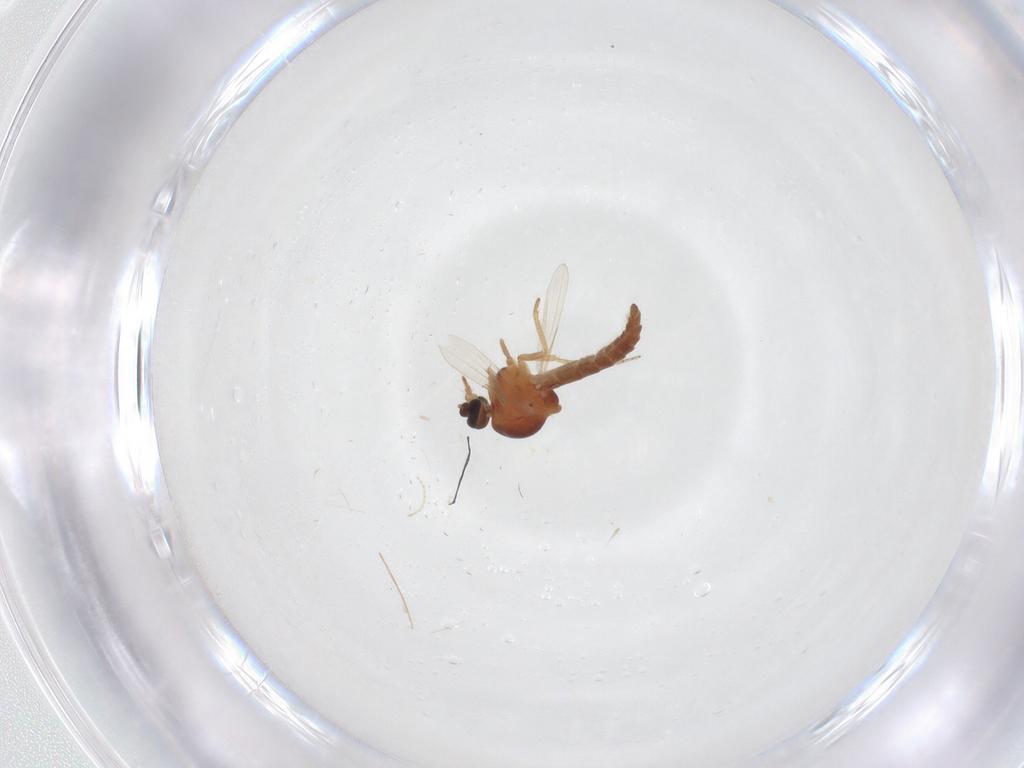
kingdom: Animalia
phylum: Arthropoda
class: Insecta
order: Diptera
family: Ceratopogonidae
